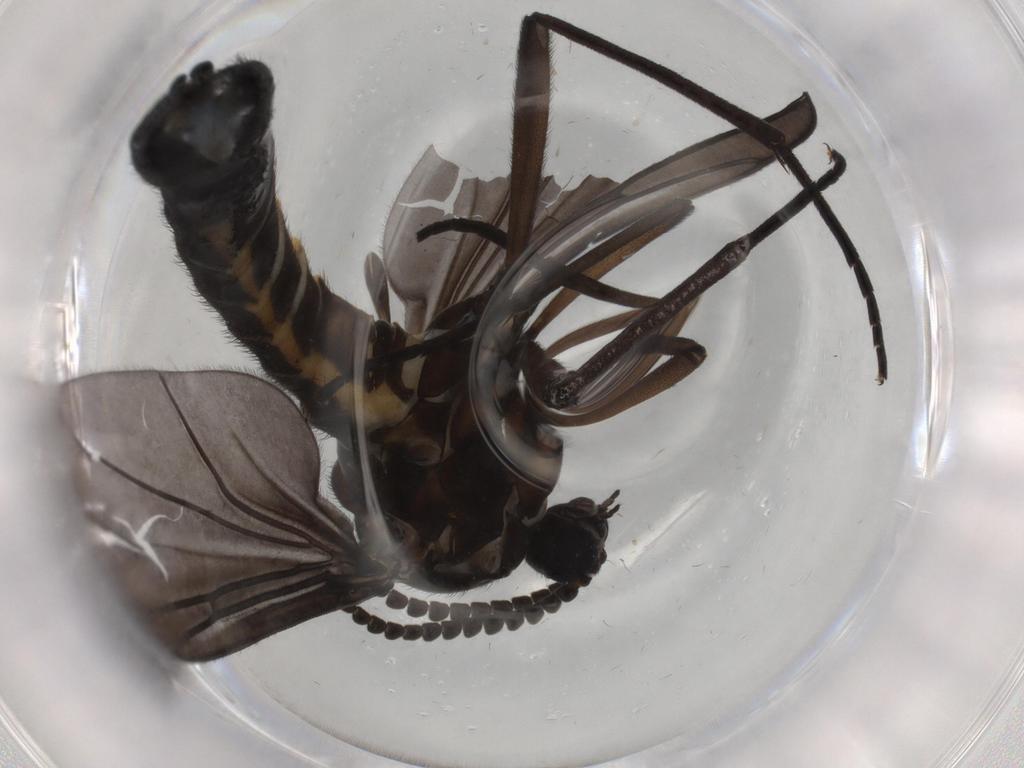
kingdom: Animalia
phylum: Arthropoda
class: Insecta
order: Diptera
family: Sciaridae
